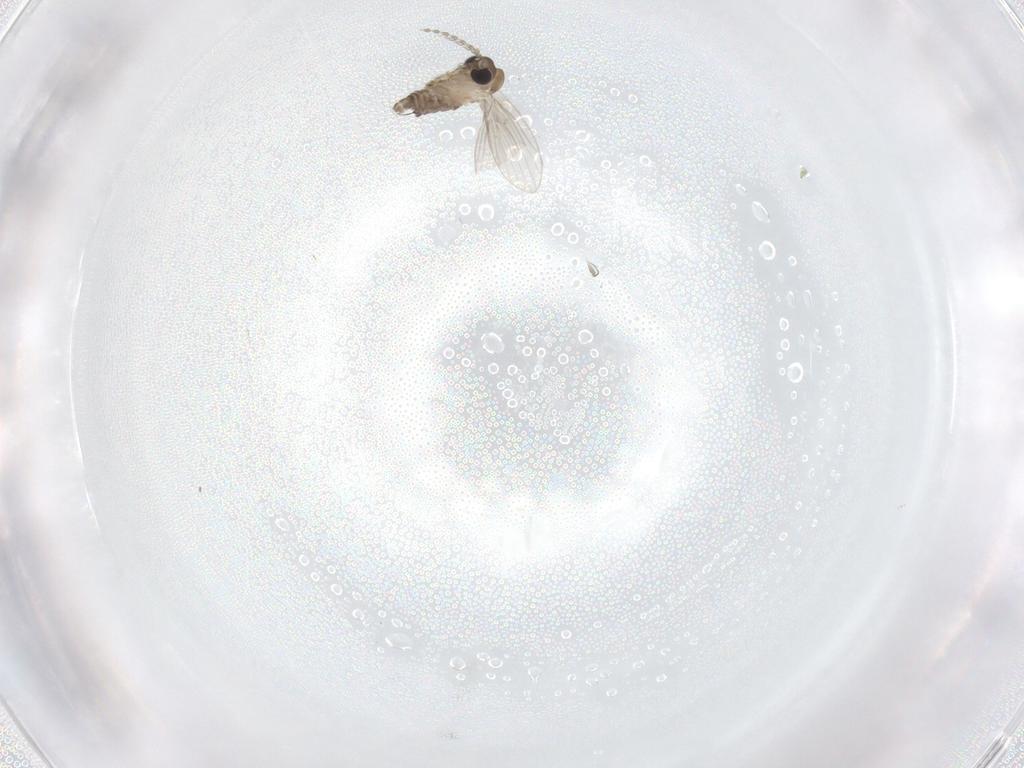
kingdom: Animalia
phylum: Arthropoda
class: Insecta
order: Diptera
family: Psychodidae
